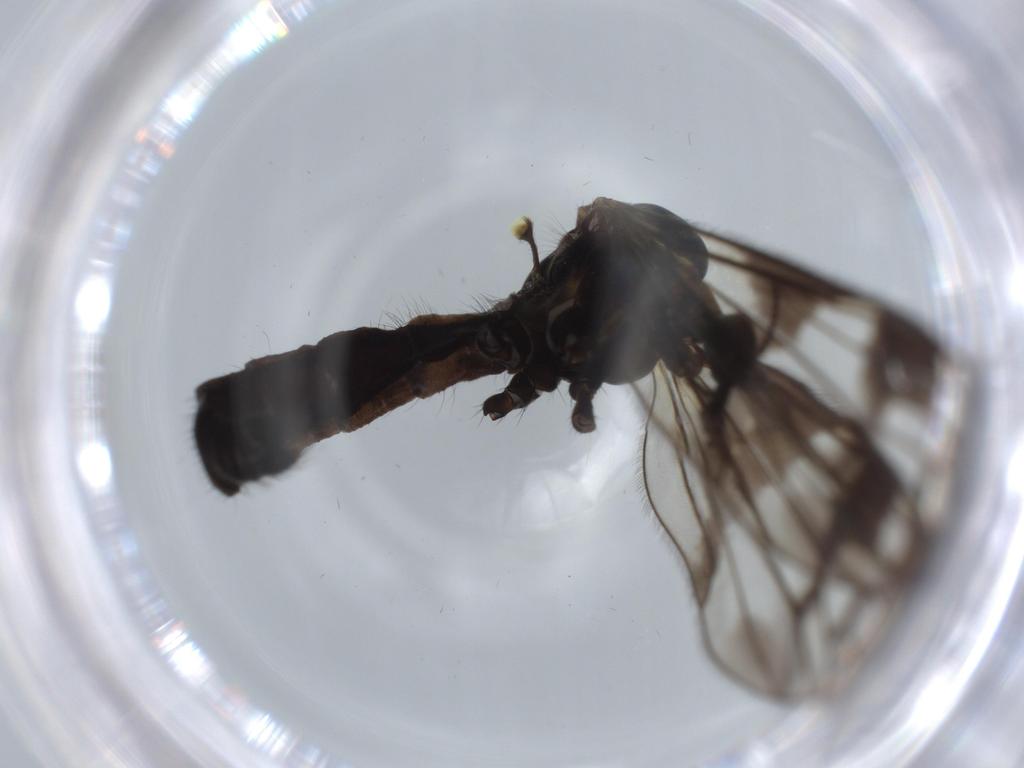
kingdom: Animalia
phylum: Arthropoda
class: Insecta
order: Diptera
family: Limoniidae
